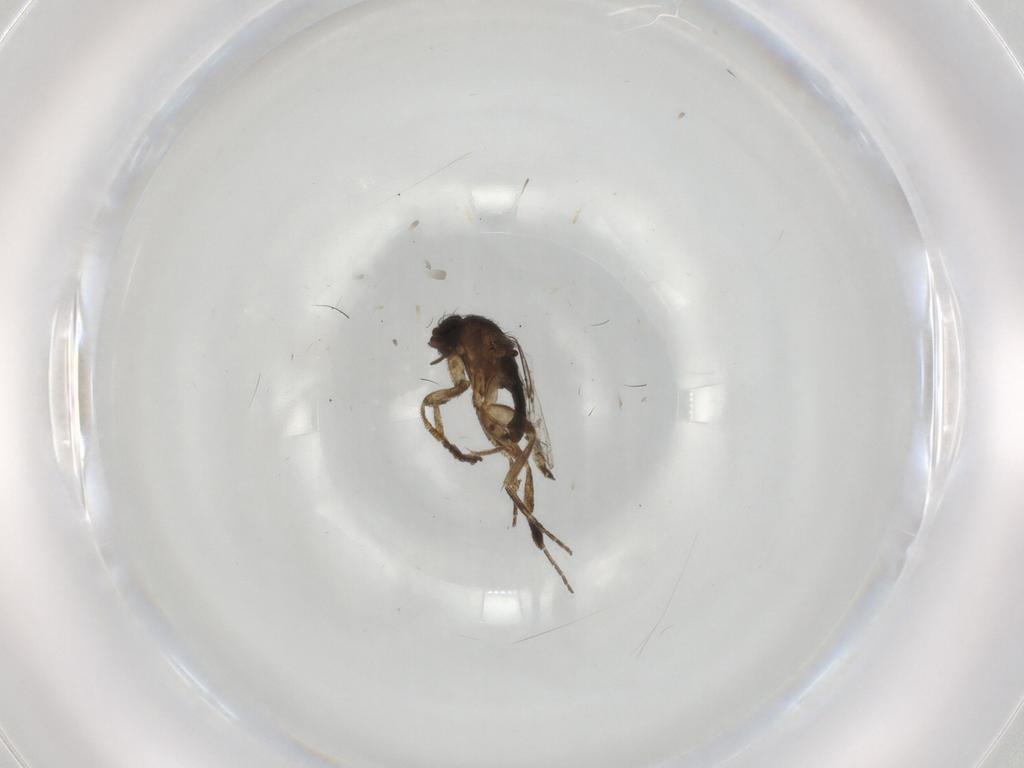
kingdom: Animalia
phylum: Arthropoda
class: Insecta
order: Diptera
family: Phoridae
